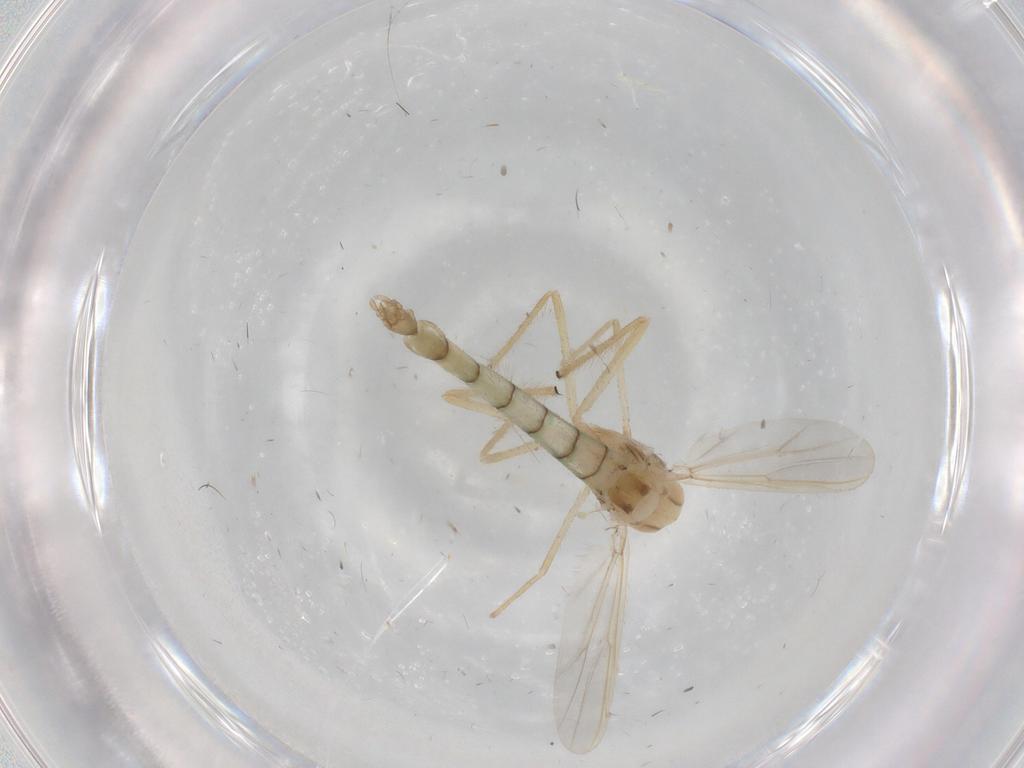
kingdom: Animalia
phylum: Arthropoda
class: Insecta
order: Diptera
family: Chironomidae
